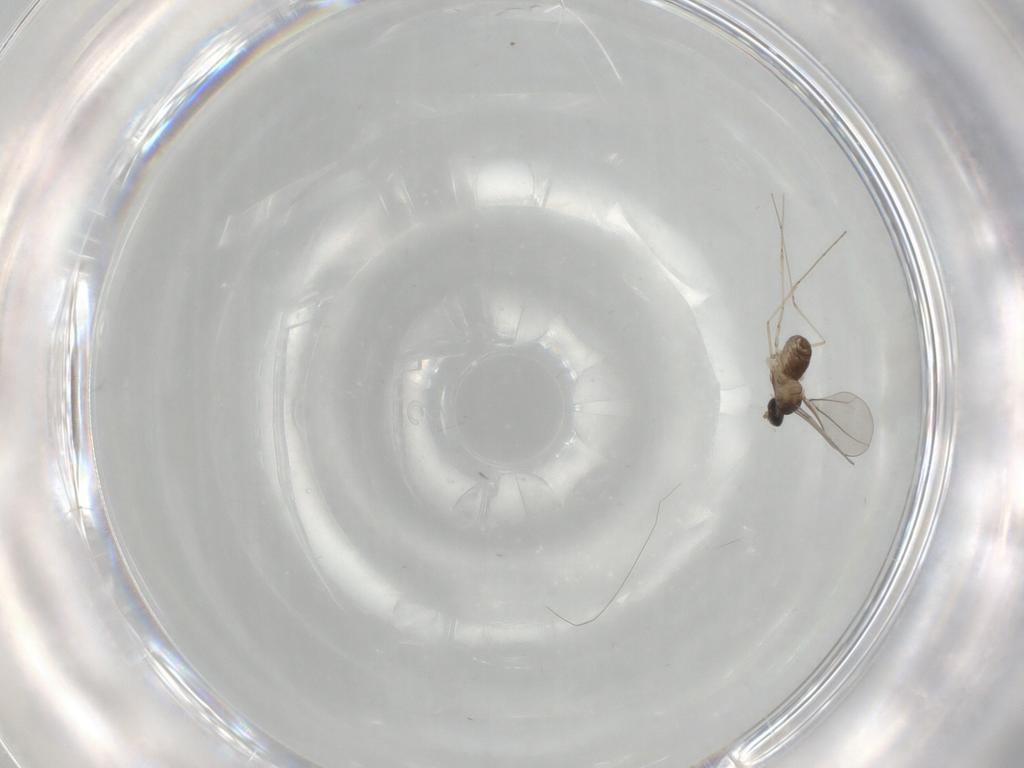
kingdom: Animalia
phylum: Arthropoda
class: Insecta
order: Diptera
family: Cecidomyiidae
